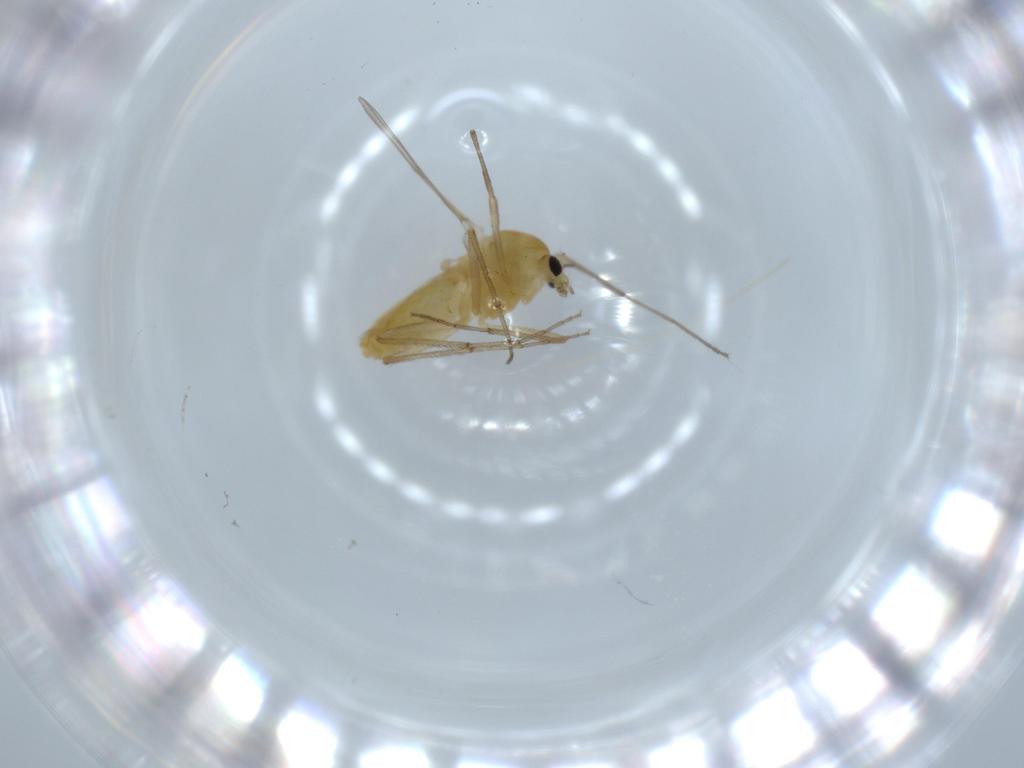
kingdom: Animalia
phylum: Arthropoda
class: Insecta
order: Diptera
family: Chironomidae
